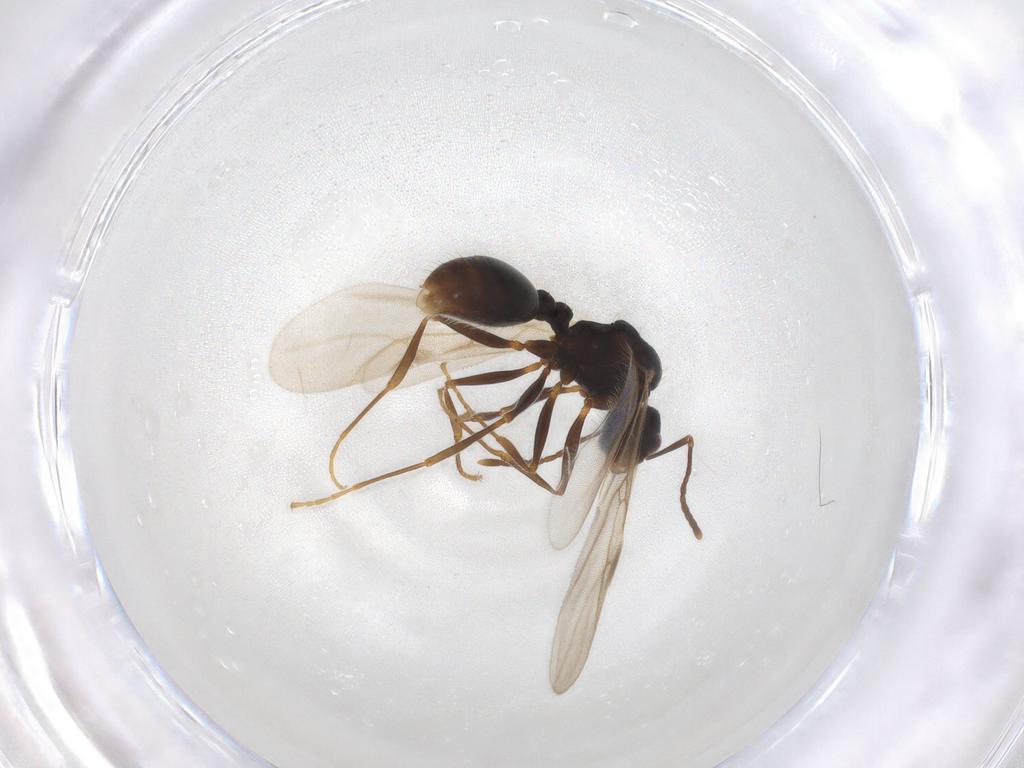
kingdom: Animalia
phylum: Arthropoda
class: Insecta
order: Hymenoptera
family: Formicidae
